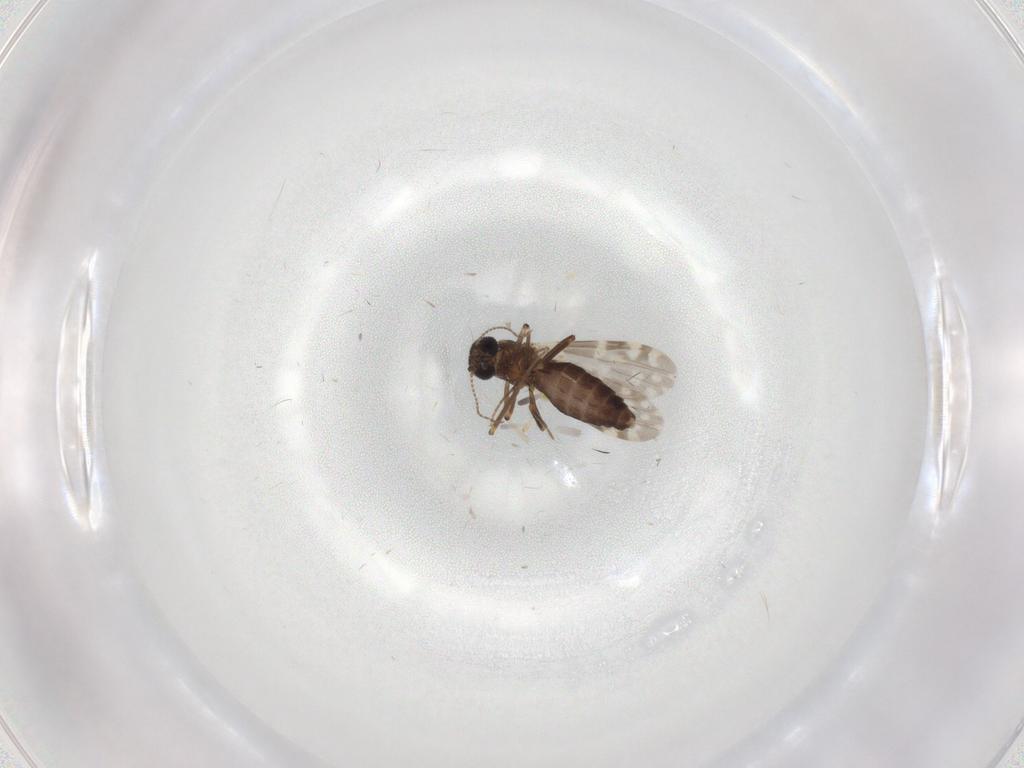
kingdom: Animalia
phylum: Arthropoda
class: Insecta
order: Diptera
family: Ceratopogonidae
